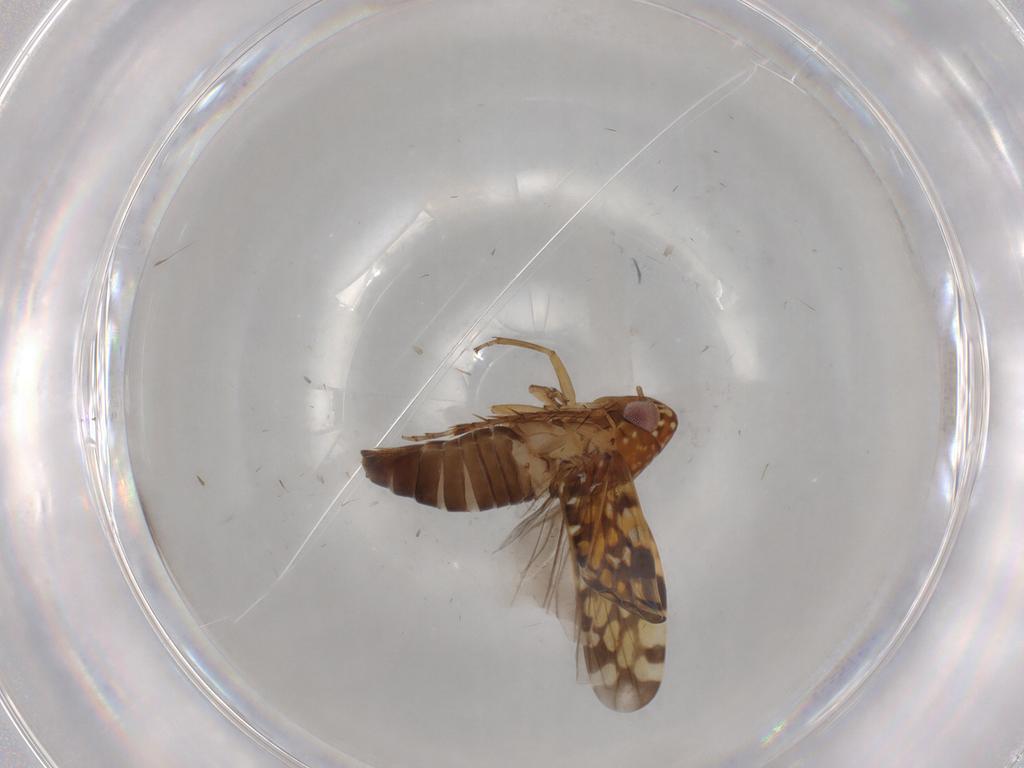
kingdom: Animalia
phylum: Arthropoda
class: Insecta
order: Hemiptera
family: Cicadellidae
